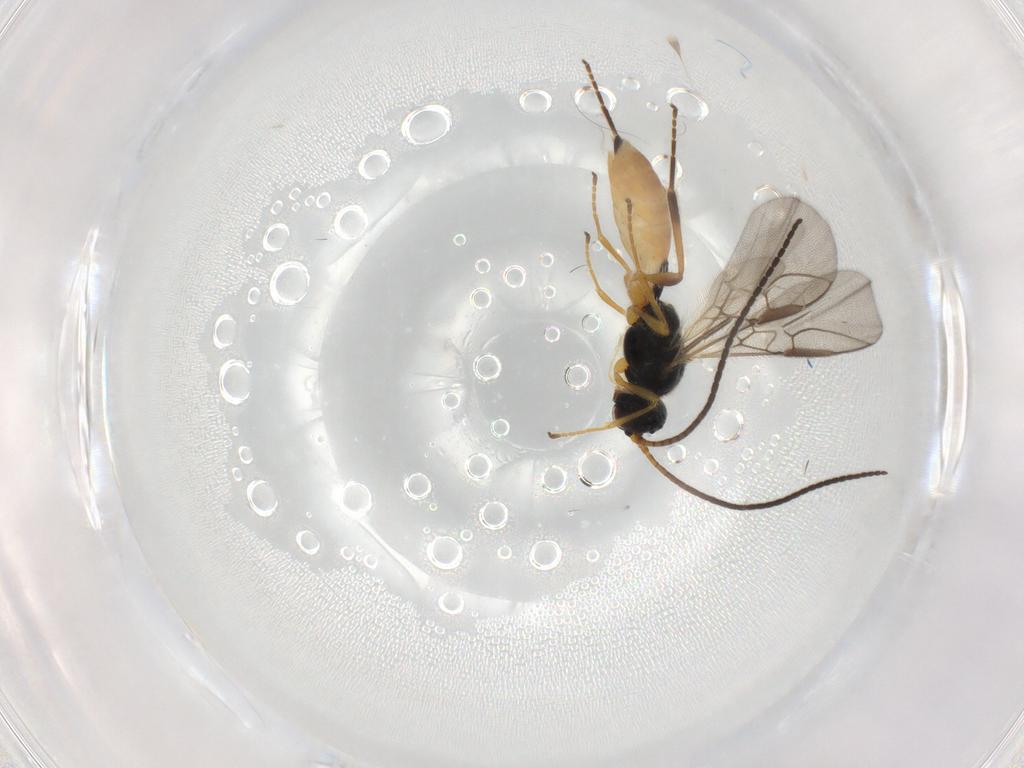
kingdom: Animalia
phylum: Arthropoda
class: Insecta
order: Hymenoptera
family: Braconidae
